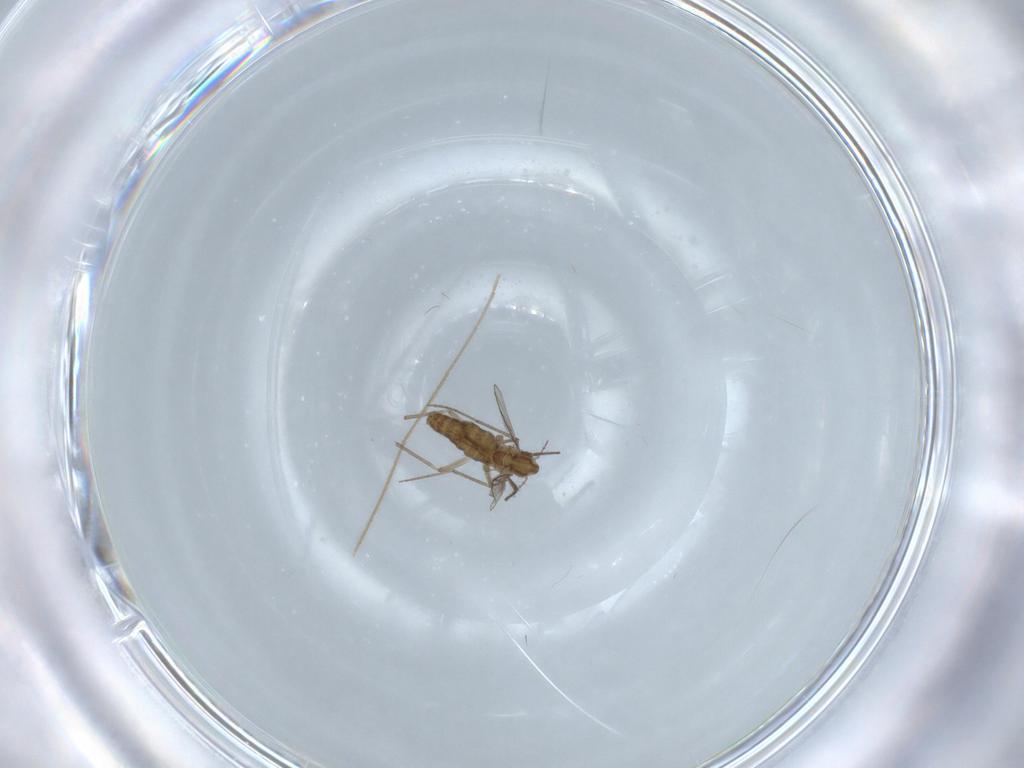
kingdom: Animalia
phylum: Arthropoda
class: Insecta
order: Diptera
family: Chironomidae
